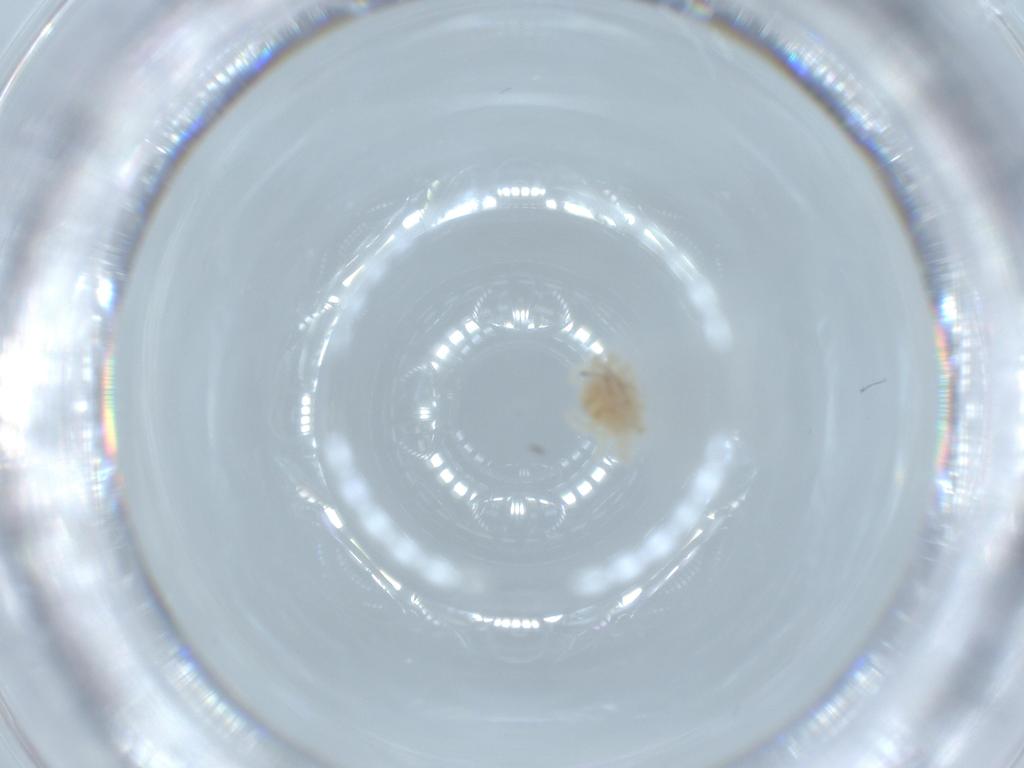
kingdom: Animalia
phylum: Arthropoda
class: Arachnida
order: Trombidiformes
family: Anystidae
